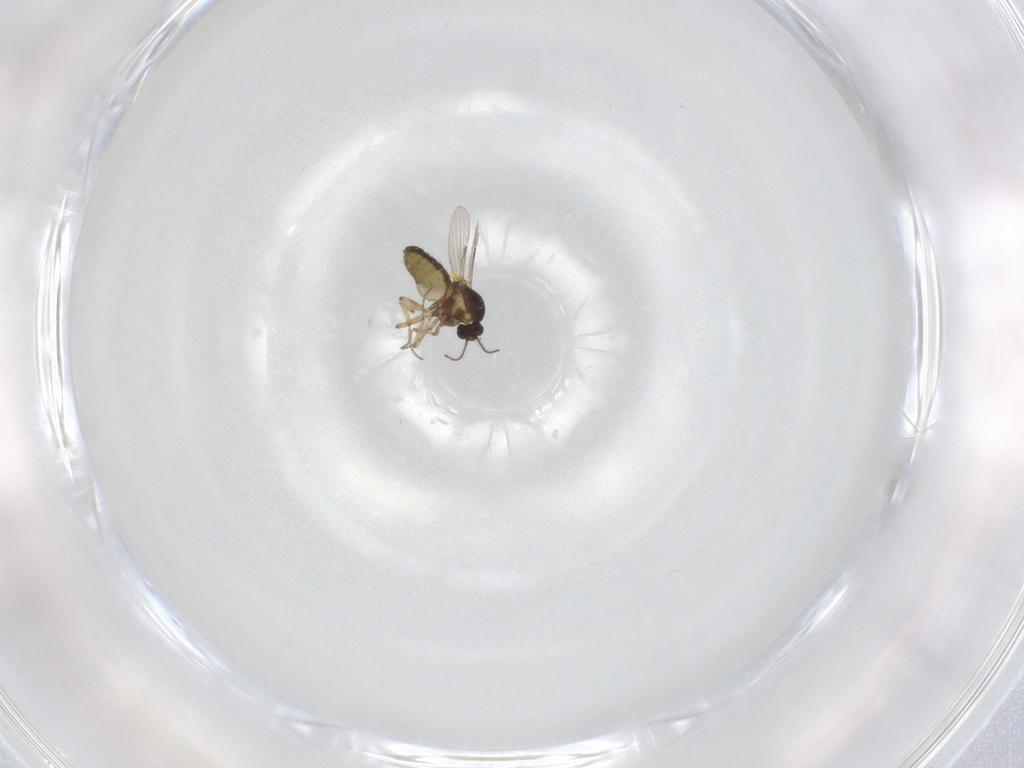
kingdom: Animalia
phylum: Arthropoda
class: Insecta
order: Diptera
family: Ceratopogonidae
